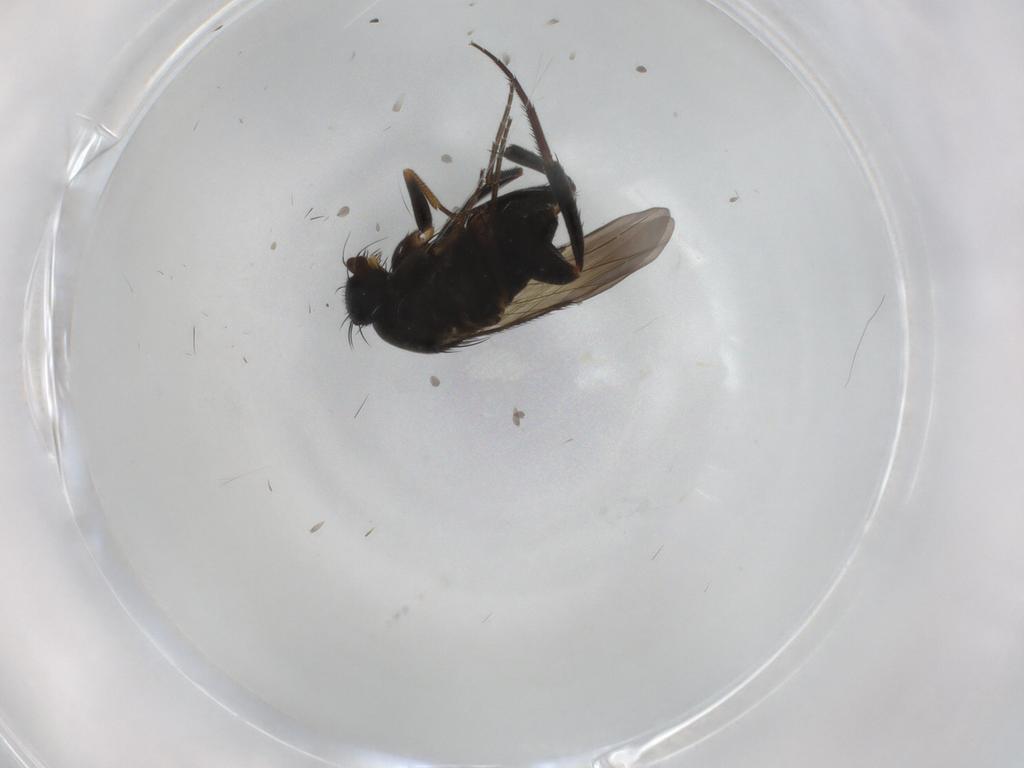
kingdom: Animalia
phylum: Arthropoda
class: Insecta
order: Diptera
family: Phoridae
